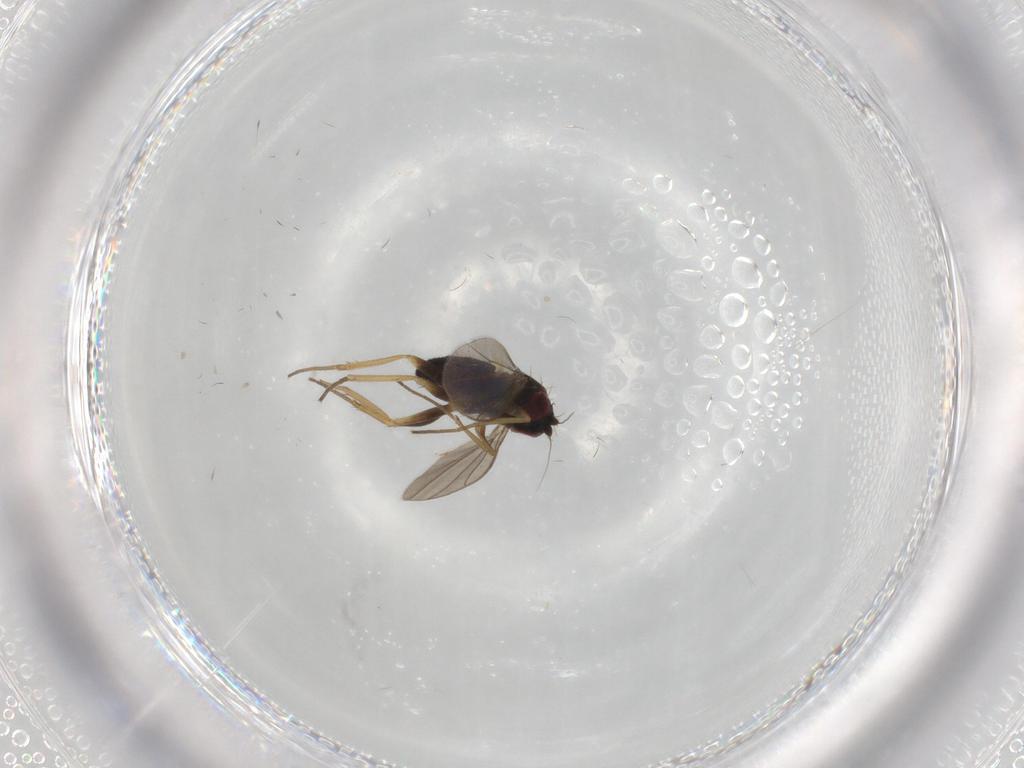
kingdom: Animalia
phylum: Arthropoda
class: Insecta
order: Diptera
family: Dolichopodidae
